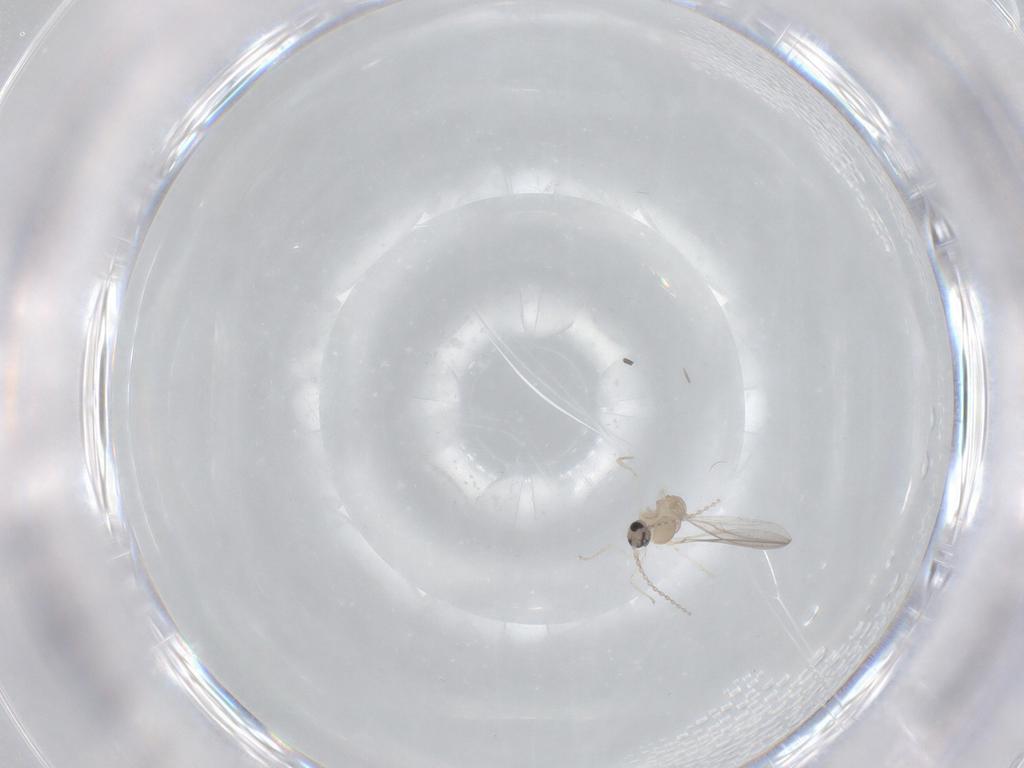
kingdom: Animalia
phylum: Arthropoda
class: Insecta
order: Diptera
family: Cecidomyiidae
